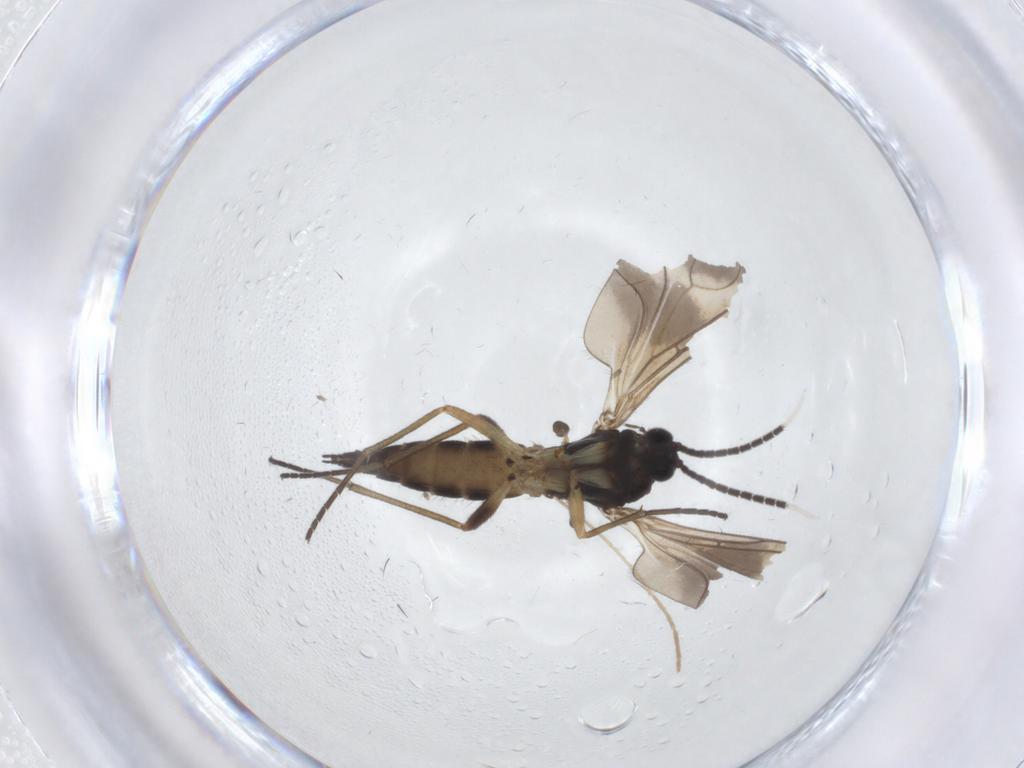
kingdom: Animalia
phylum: Arthropoda
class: Insecta
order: Diptera
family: Sciaridae
